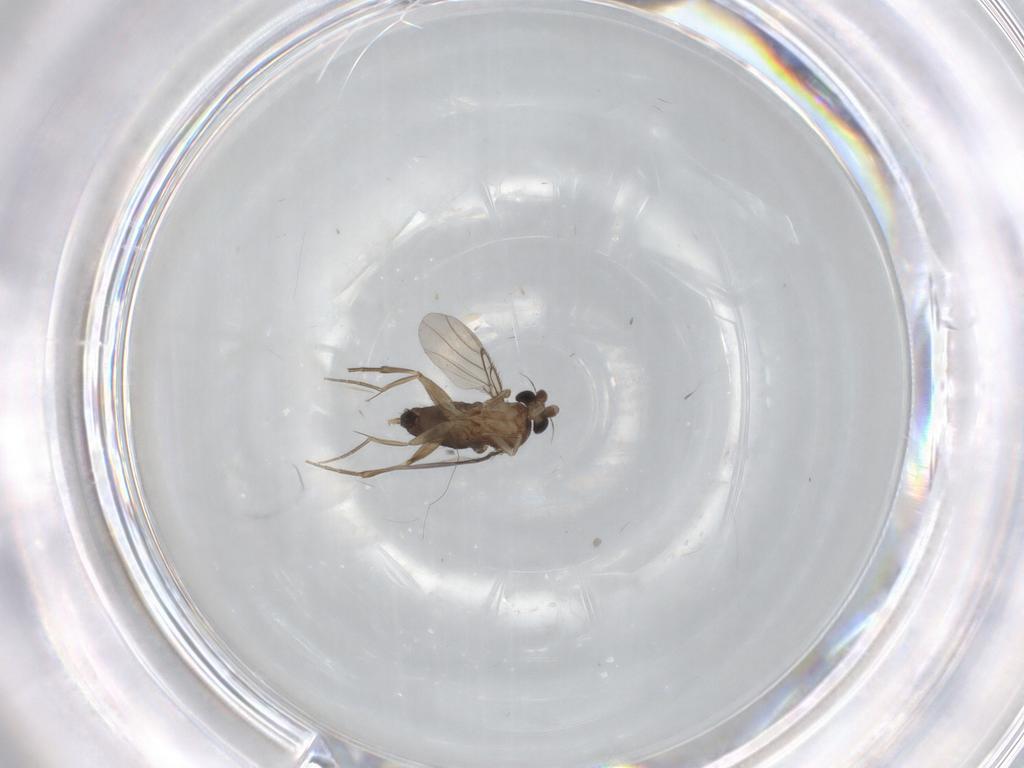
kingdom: Animalia
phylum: Arthropoda
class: Insecta
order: Diptera
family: Phoridae
